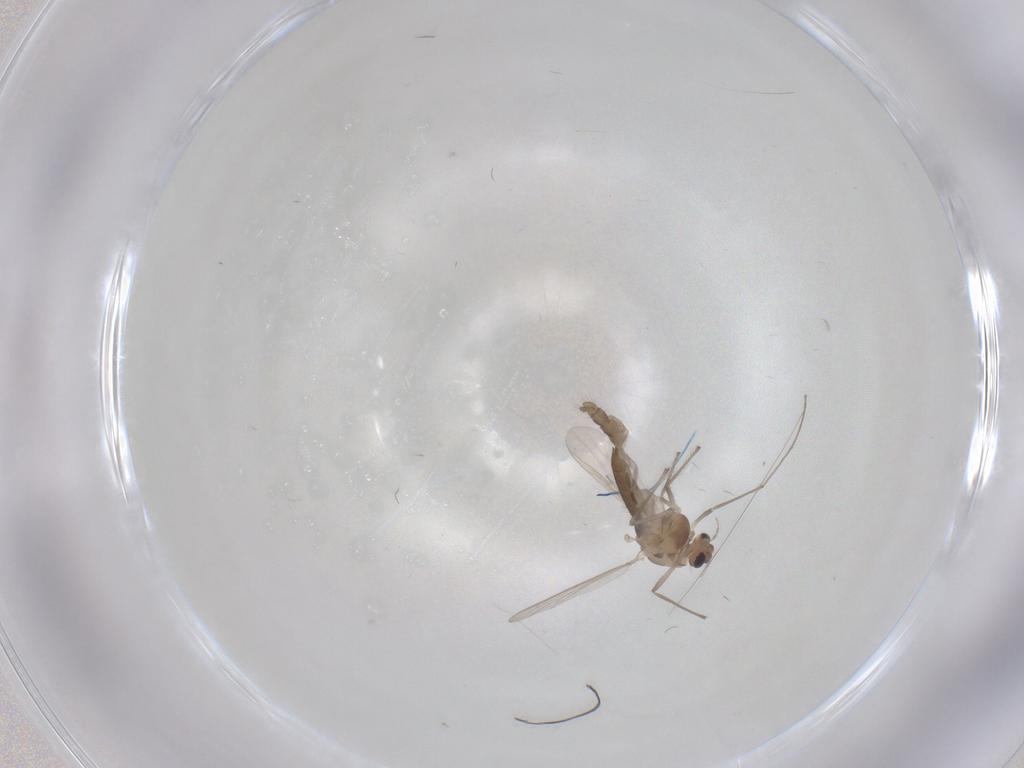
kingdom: Animalia
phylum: Arthropoda
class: Insecta
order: Diptera
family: Chironomidae
